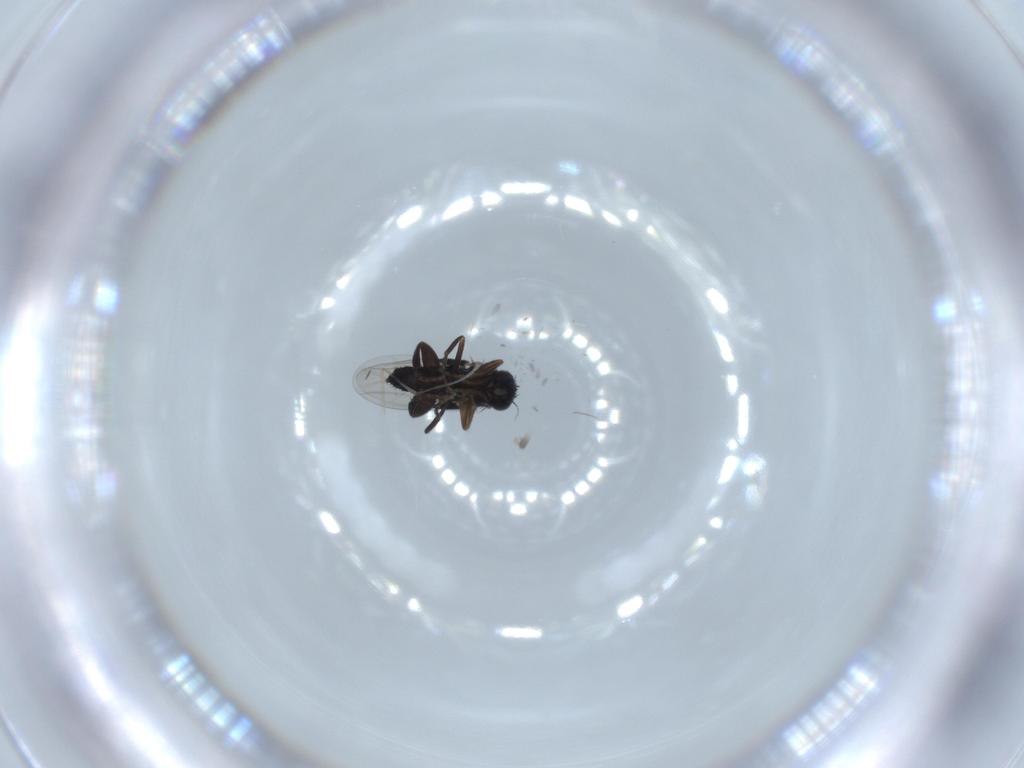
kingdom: Animalia
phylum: Arthropoda
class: Insecta
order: Diptera
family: Phoridae
